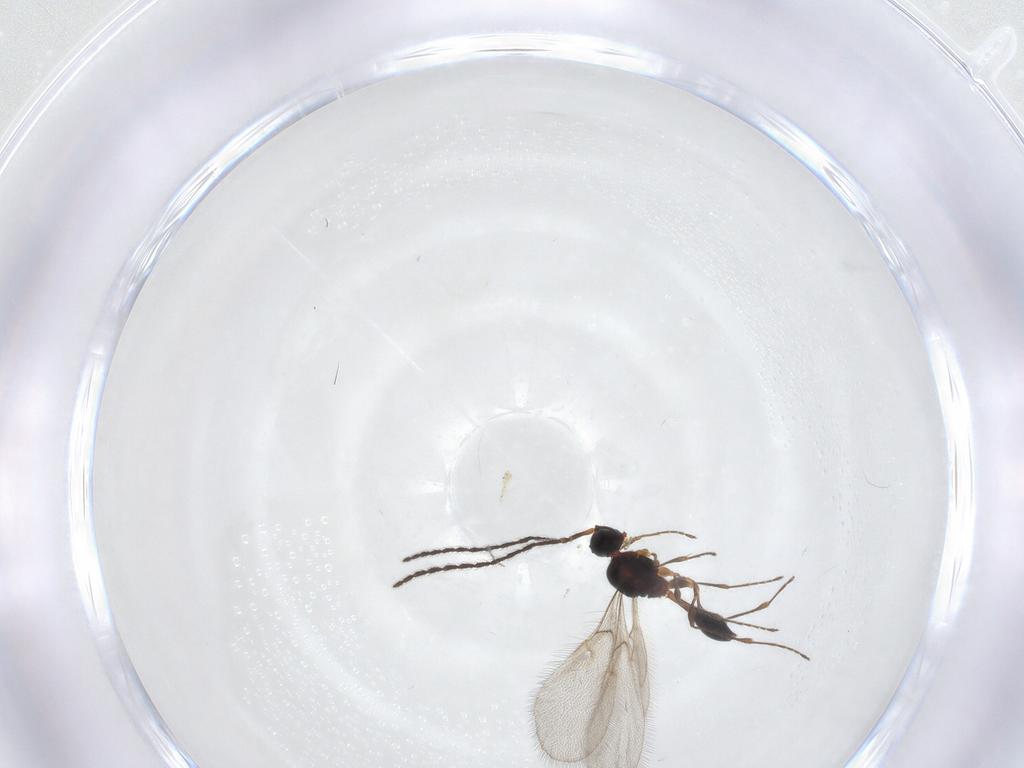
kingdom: Animalia
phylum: Arthropoda
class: Insecta
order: Hymenoptera
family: Diapriidae
